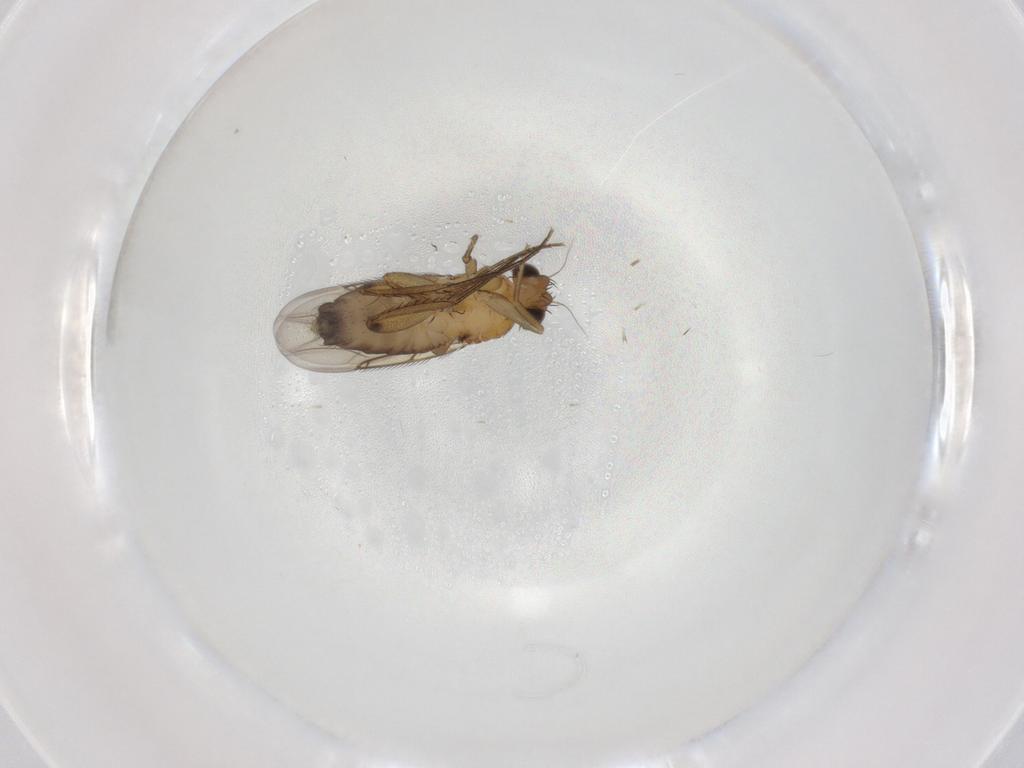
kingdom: Animalia
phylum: Arthropoda
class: Insecta
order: Diptera
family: Phoridae
